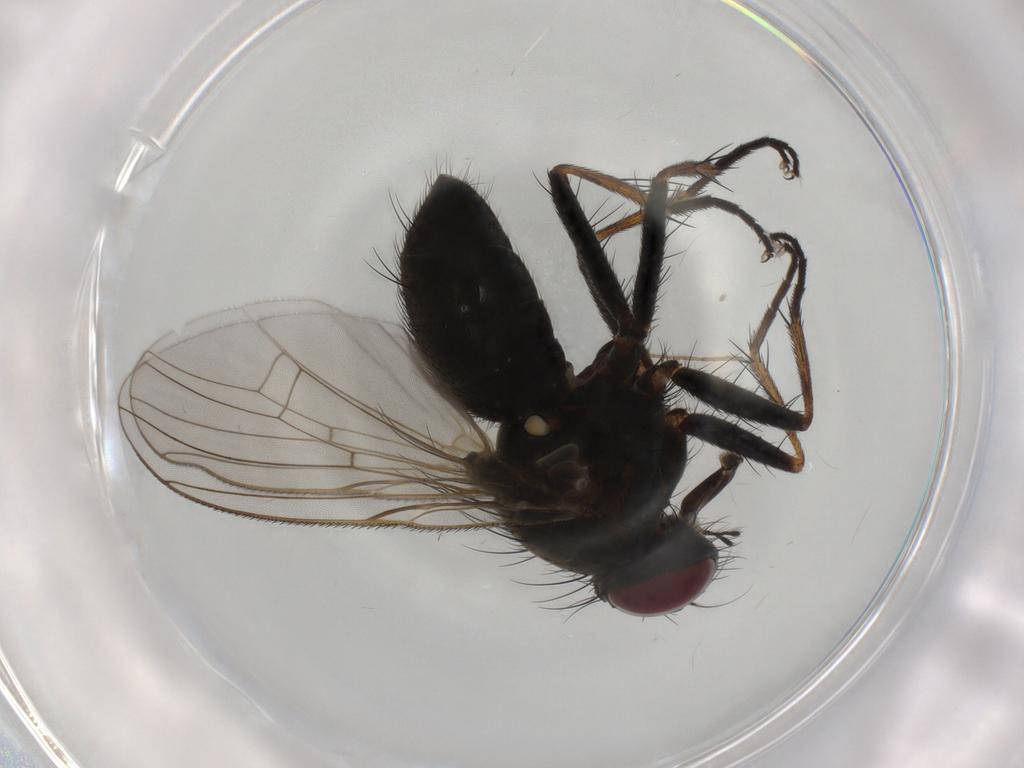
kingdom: Animalia
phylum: Arthropoda
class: Insecta
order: Diptera
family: Muscidae
